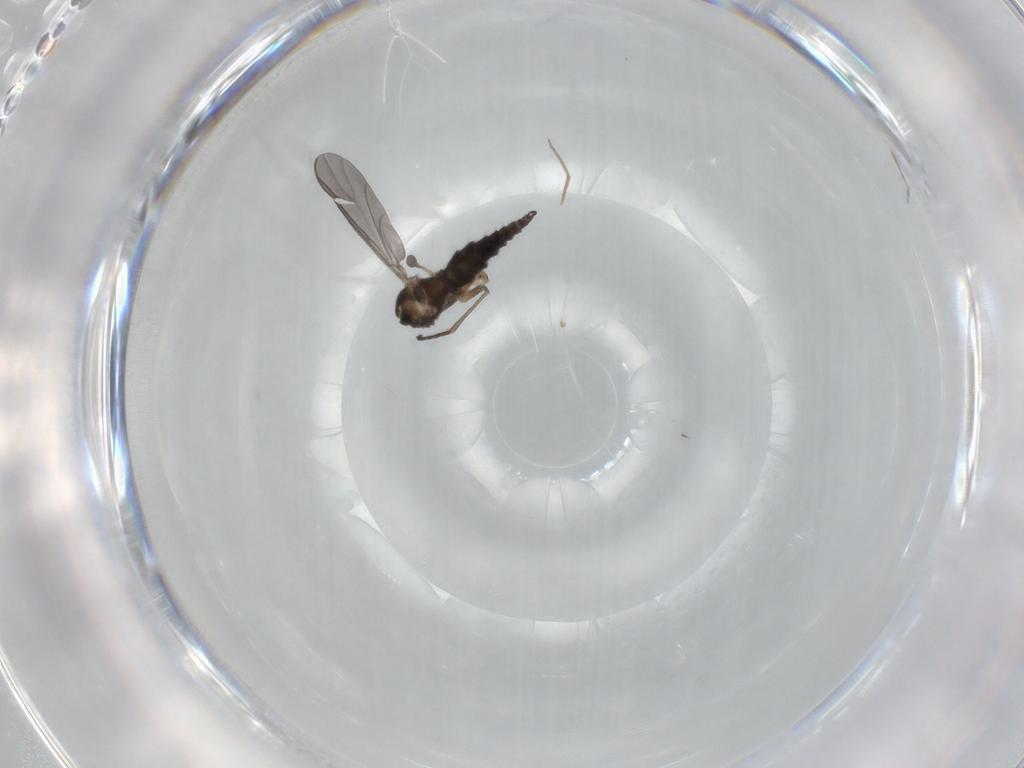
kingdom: Animalia
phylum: Arthropoda
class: Insecta
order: Diptera
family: Sciaridae
